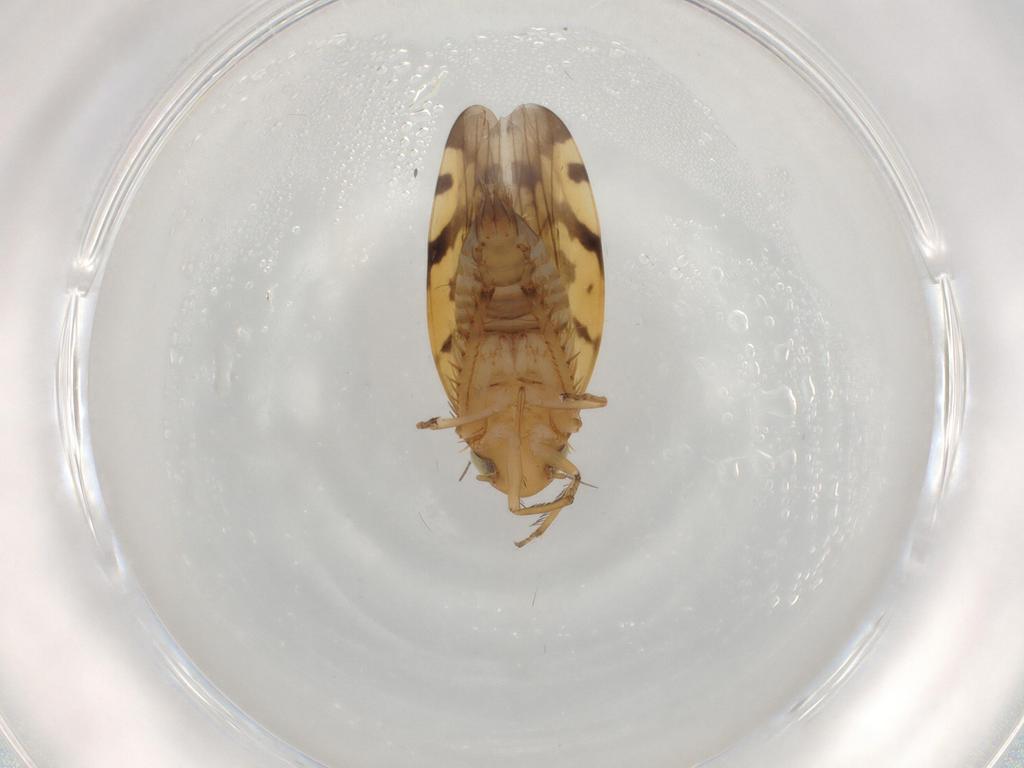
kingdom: Animalia
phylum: Arthropoda
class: Insecta
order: Hemiptera
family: Cicadellidae
